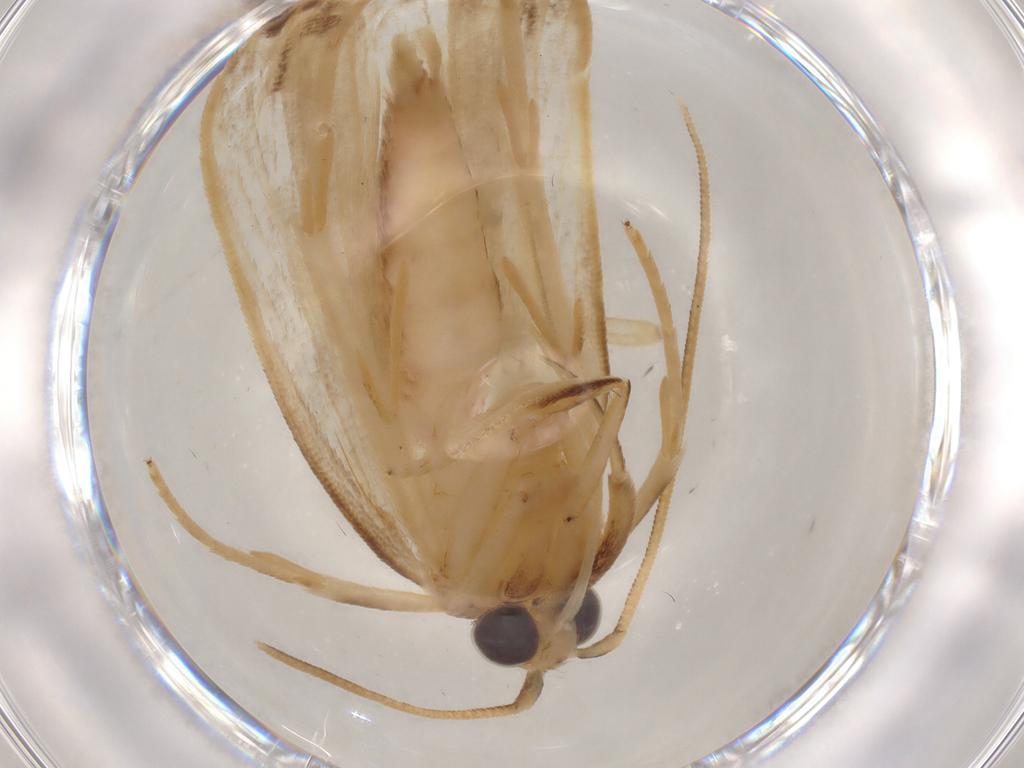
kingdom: Animalia
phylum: Arthropoda
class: Insecta
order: Lepidoptera
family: Gelechiidae
